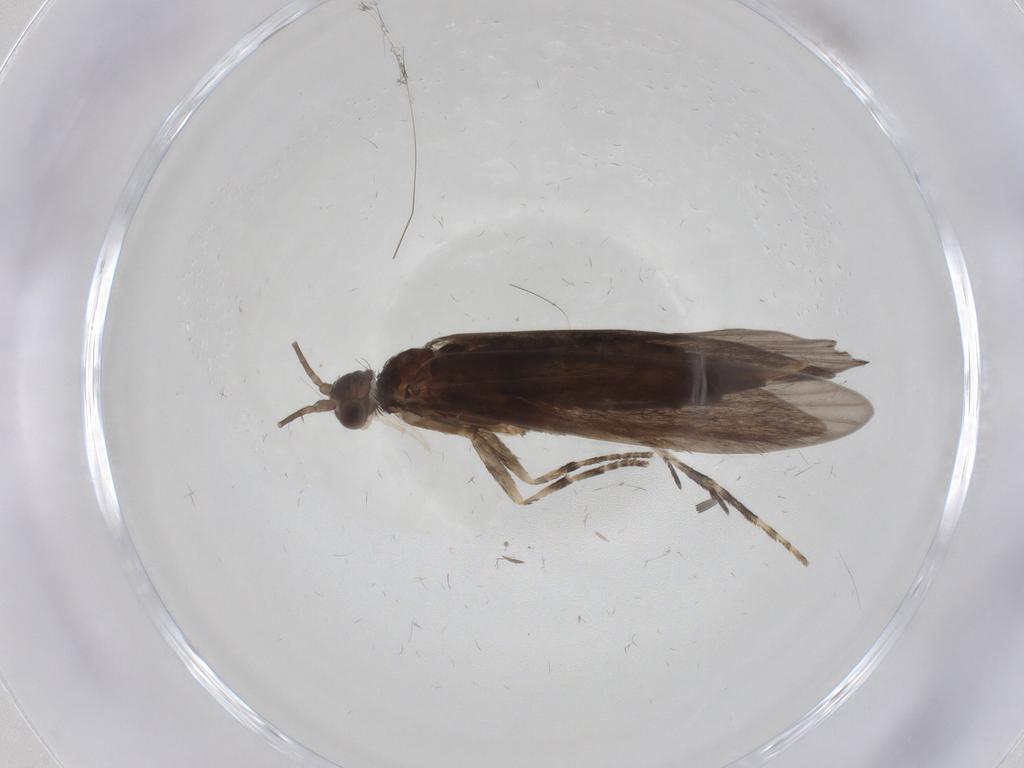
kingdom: Animalia
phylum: Arthropoda
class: Insecta
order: Trichoptera
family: Xiphocentronidae
